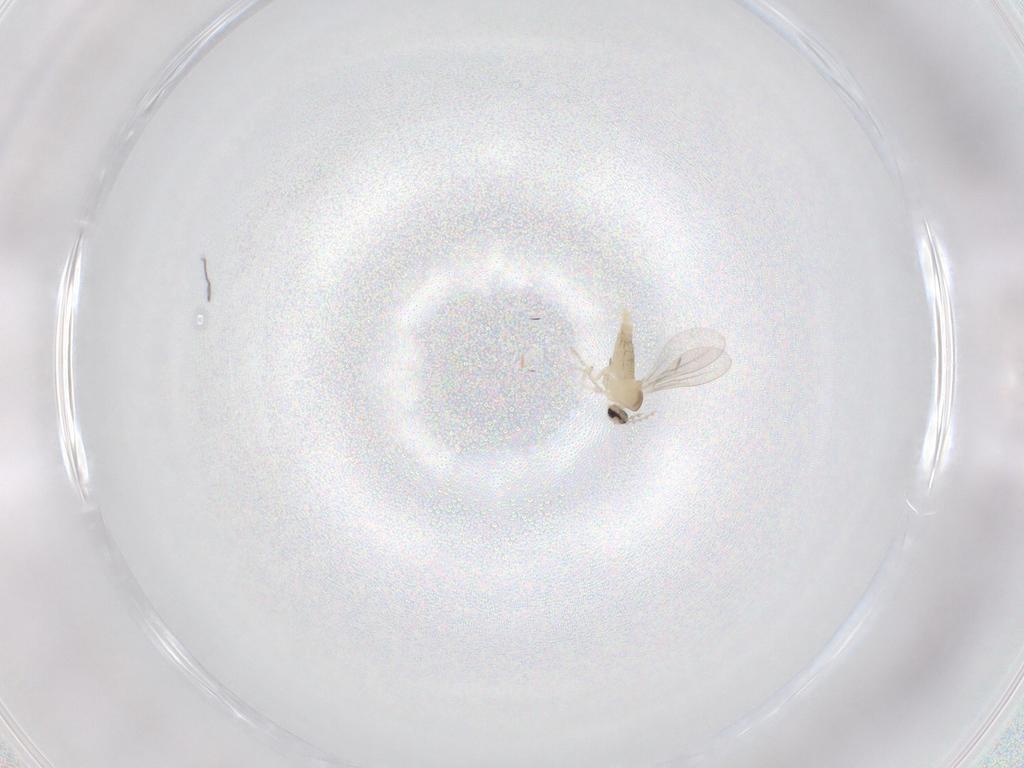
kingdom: Animalia
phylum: Arthropoda
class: Insecta
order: Diptera
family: Cecidomyiidae
